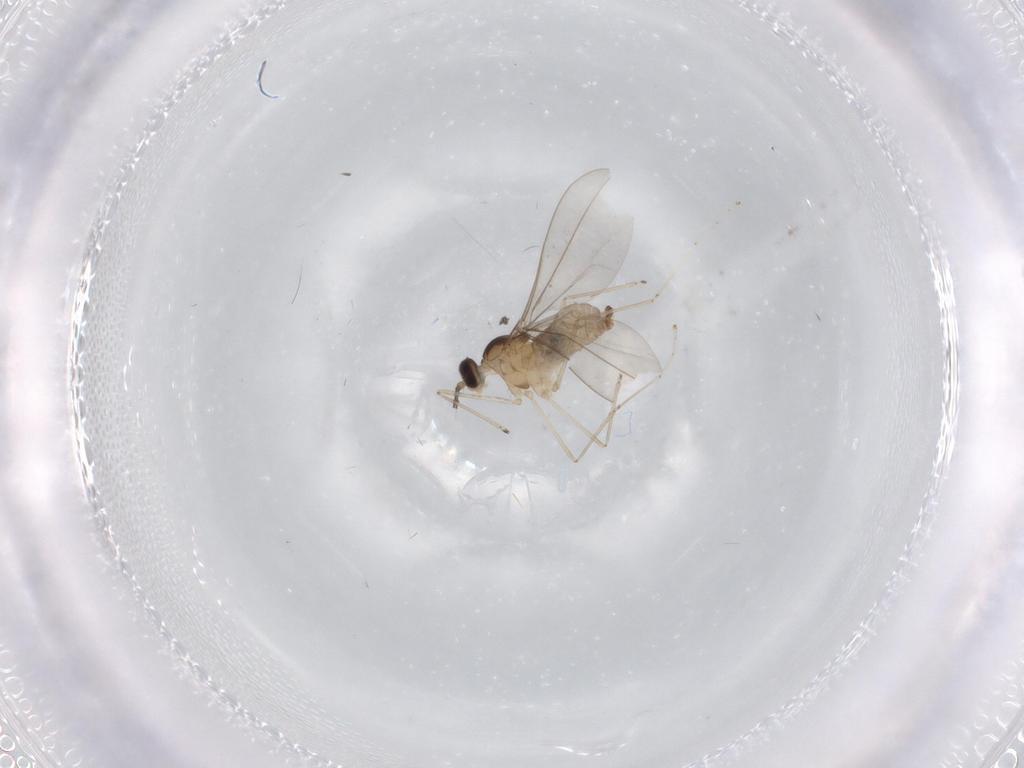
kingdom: Animalia
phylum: Arthropoda
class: Insecta
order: Diptera
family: Cecidomyiidae
